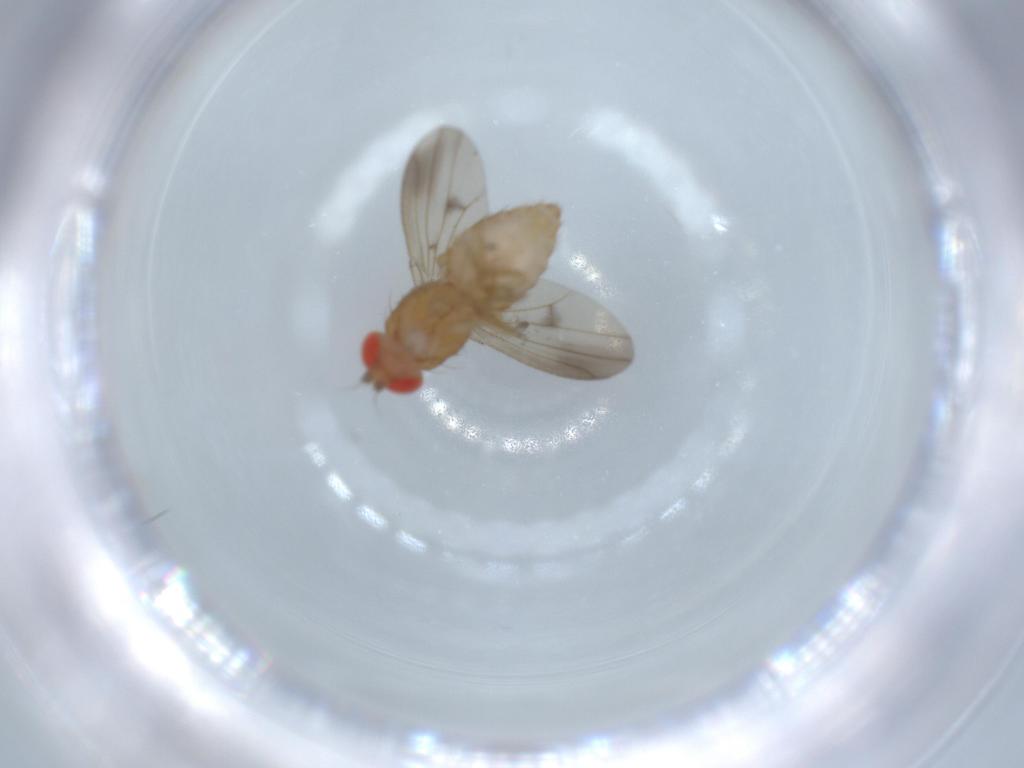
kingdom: Animalia
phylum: Arthropoda
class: Insecta
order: Diptera
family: Drosophilidae
